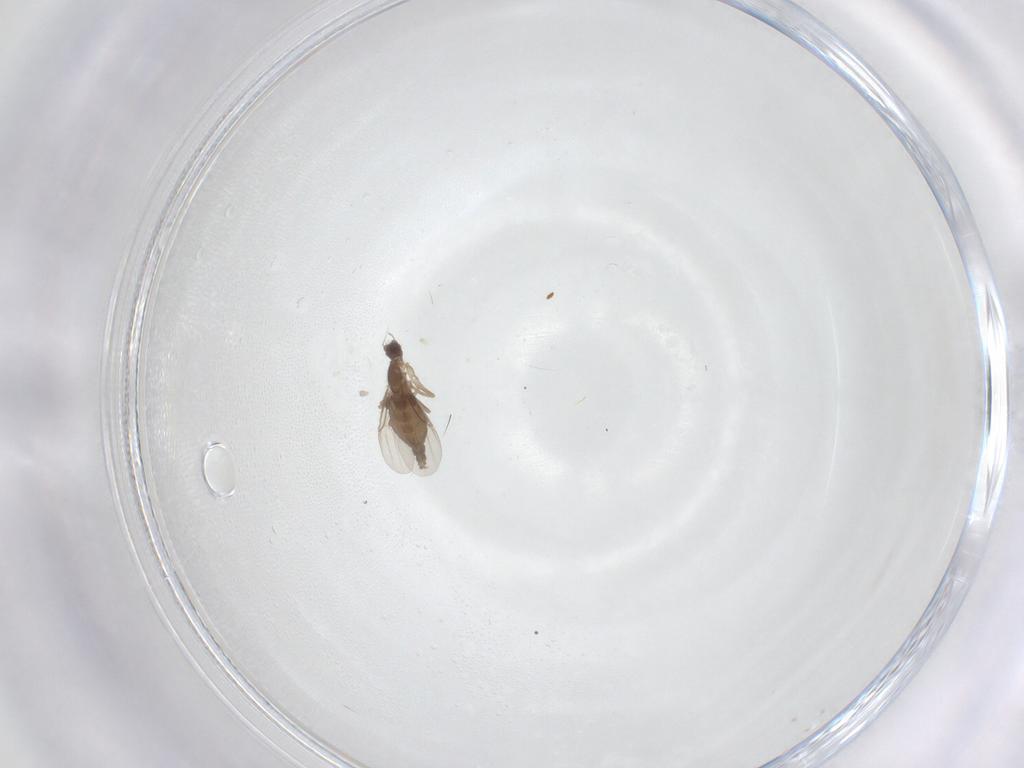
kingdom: Animalia
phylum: Arthropoda
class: Insecta
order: Diptera
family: Phoridae
